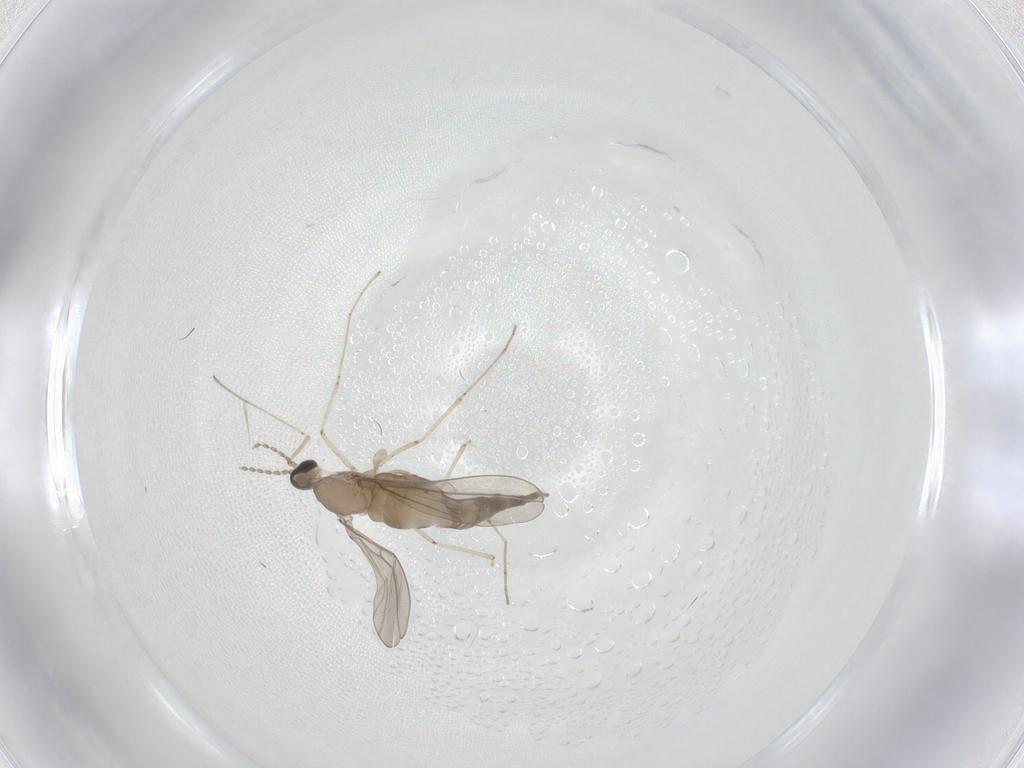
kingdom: Animalia
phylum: Arthropoda
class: Insecta
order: Diptera
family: Cecidomyiidae
